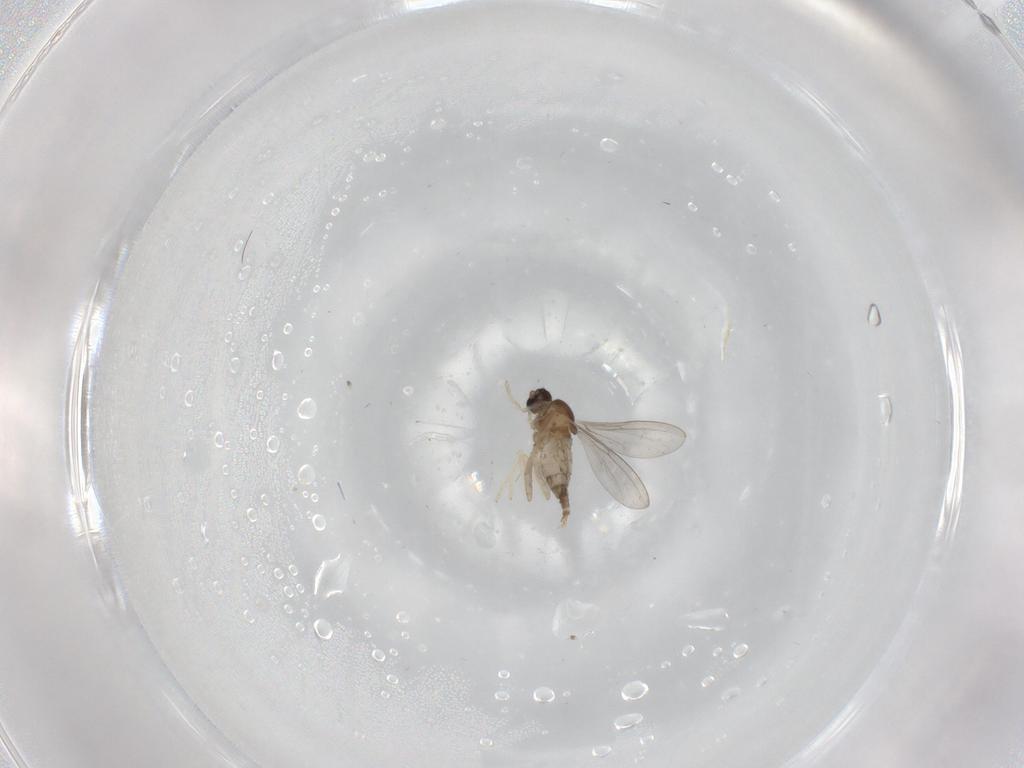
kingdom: Animalia
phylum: Arthropoda
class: Insecta
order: Diptera
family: Cecidomyiidae
